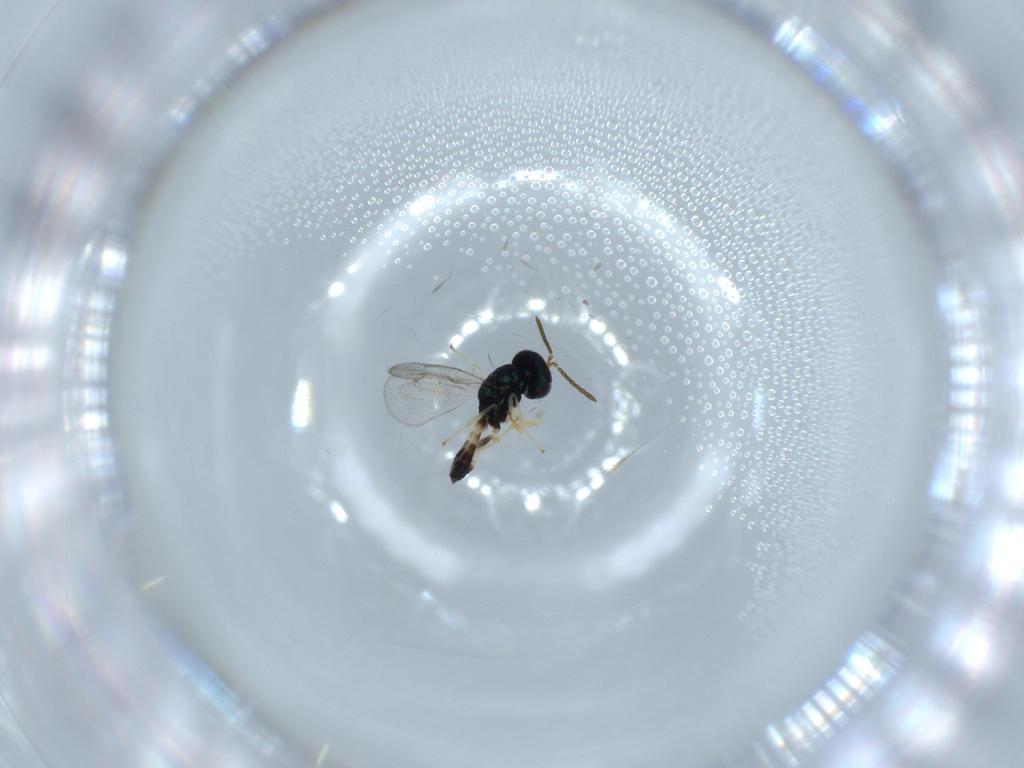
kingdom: Animalia
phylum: Arthropoda
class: Insecta
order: Hymenoptera
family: Pteromalidae
